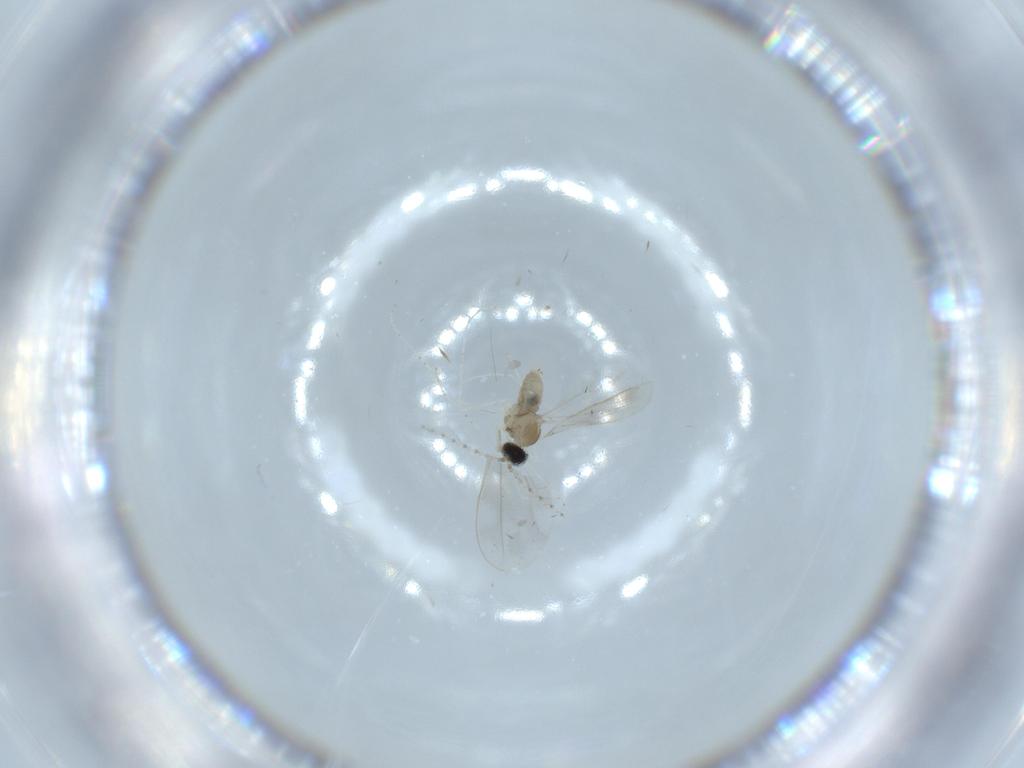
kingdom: Animalia
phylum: Arthropoda
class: Insecta
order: Diptera
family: Cecidomyiidae
